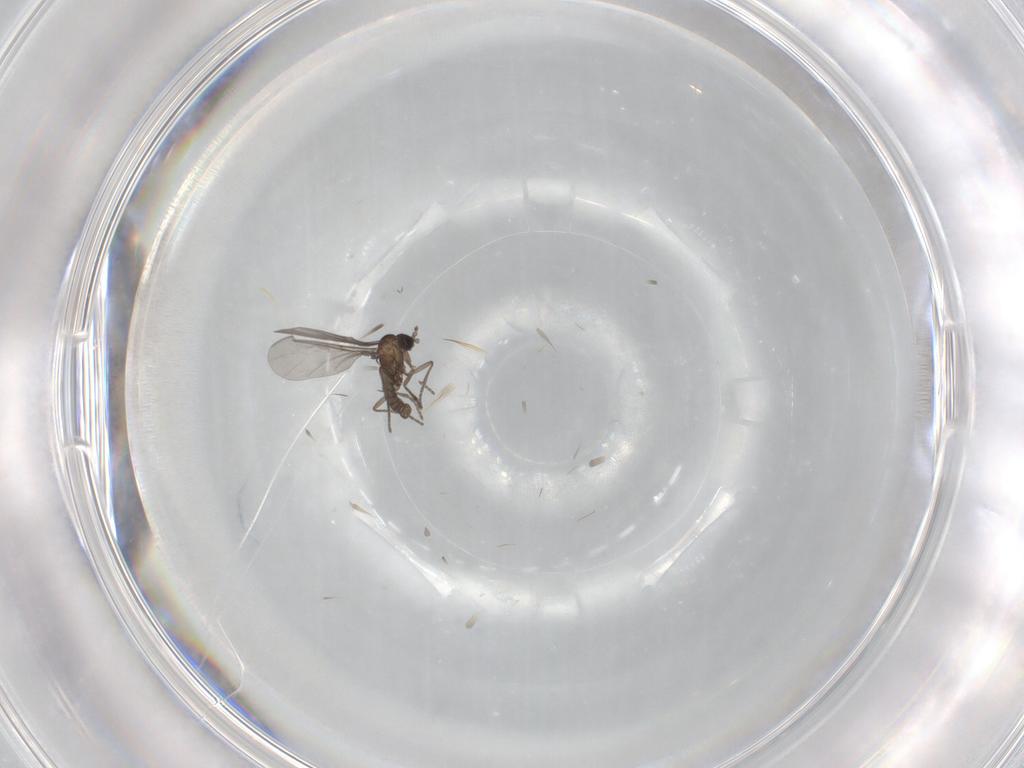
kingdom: Animalia
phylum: Arthropoda
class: Insecta
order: Diptera
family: Sciaridae
